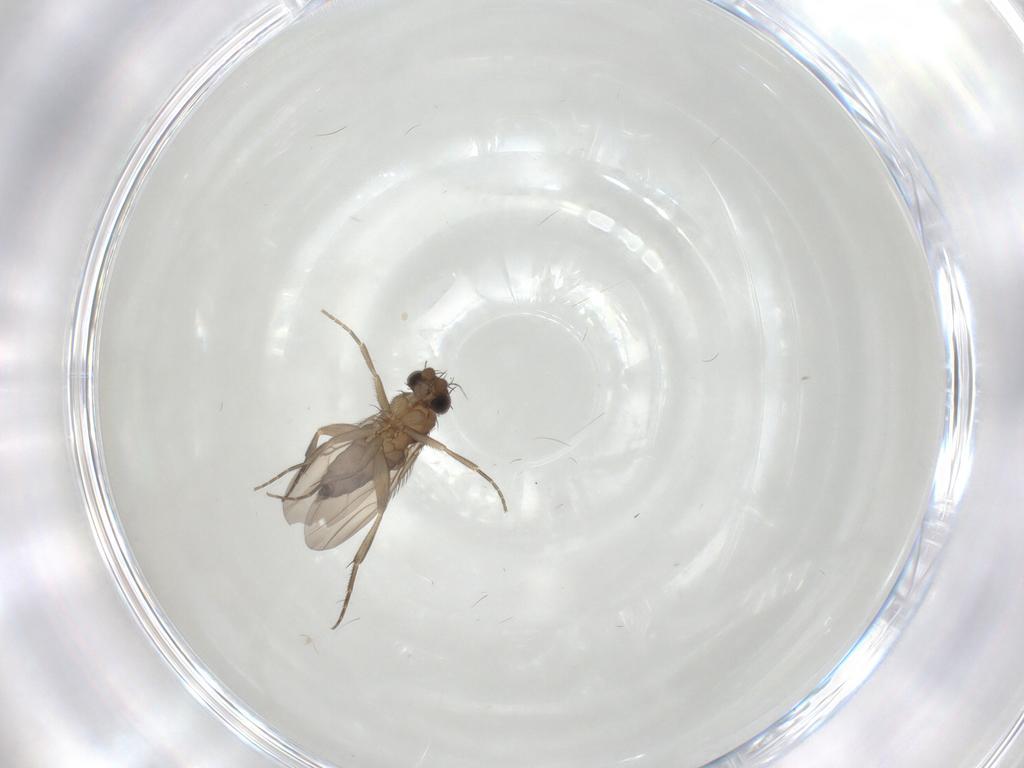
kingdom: Animalia
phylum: Arthropoda
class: Insecta
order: Diptera
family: Phoridae
